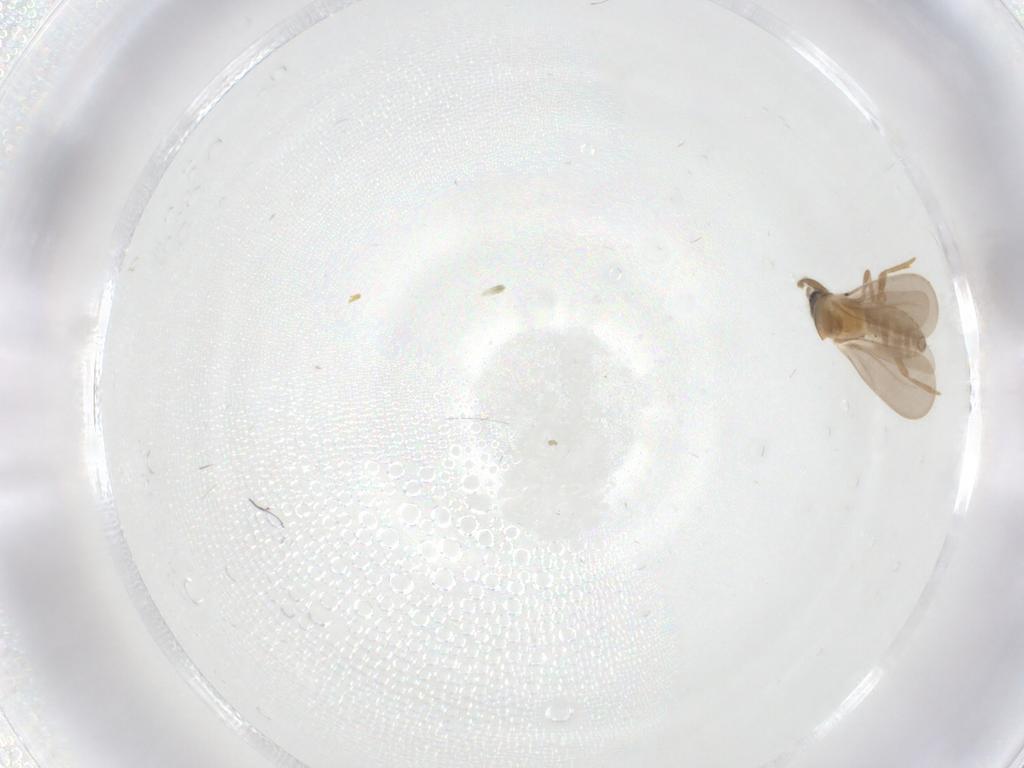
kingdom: Animalia
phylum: Arthropoda
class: Insecta
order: Diptera
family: Cecidomyiidae
